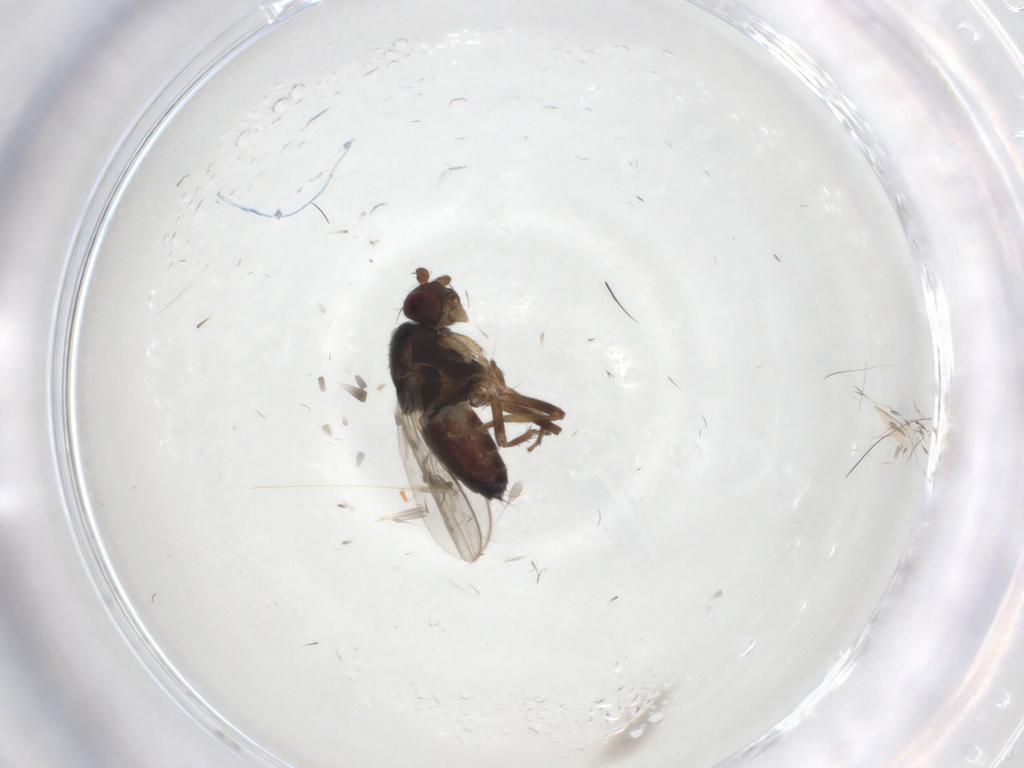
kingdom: Animalia
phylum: Arthropoda
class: Insecta
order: Diptera
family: Sphaeroceridae
